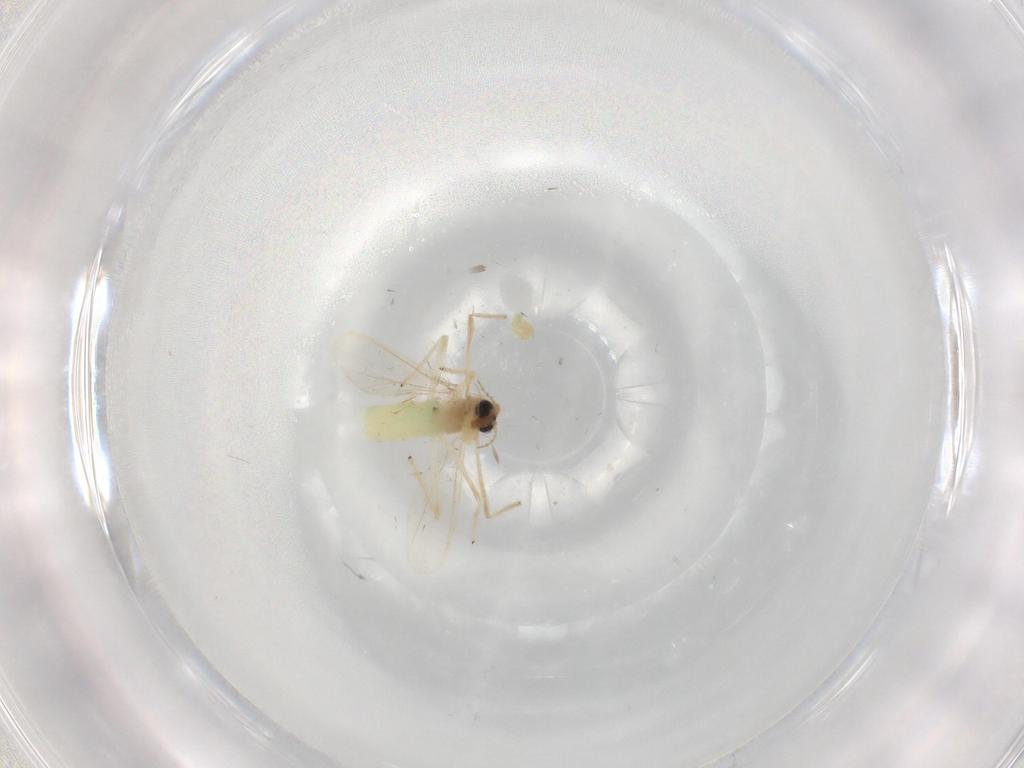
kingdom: Animalia
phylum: Arthropoda
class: Insecta
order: Diptera
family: Chironomidae
